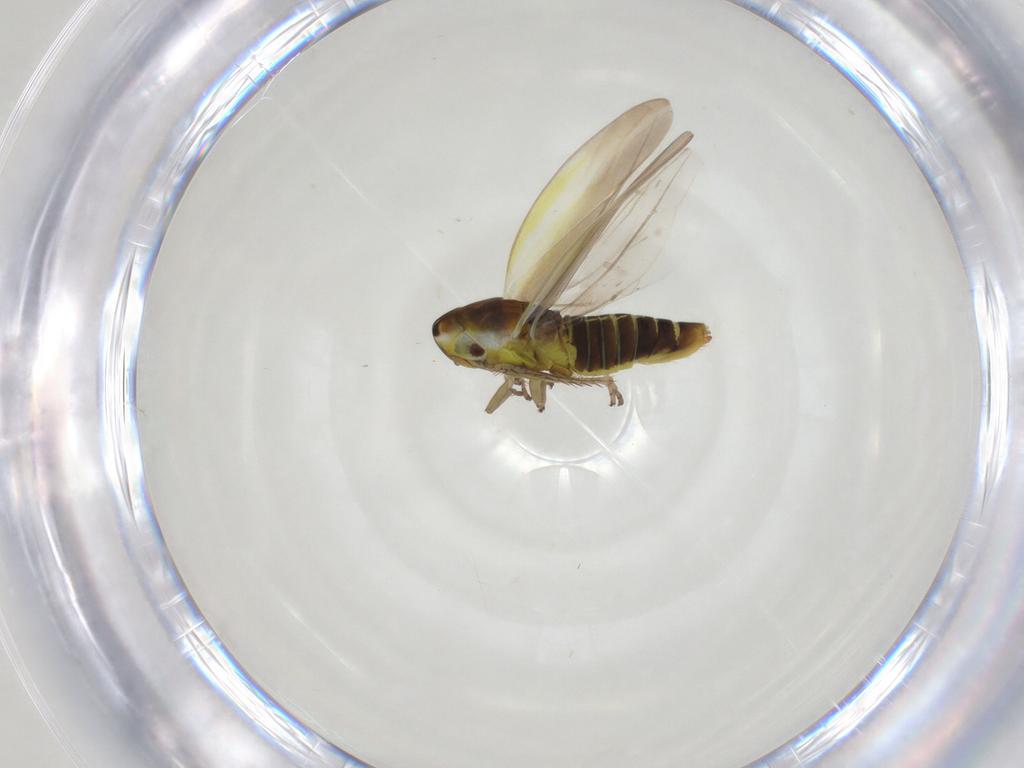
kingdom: Animalia
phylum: Arthropoda
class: Insecta
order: Hemiptera
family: Cicadellidae
